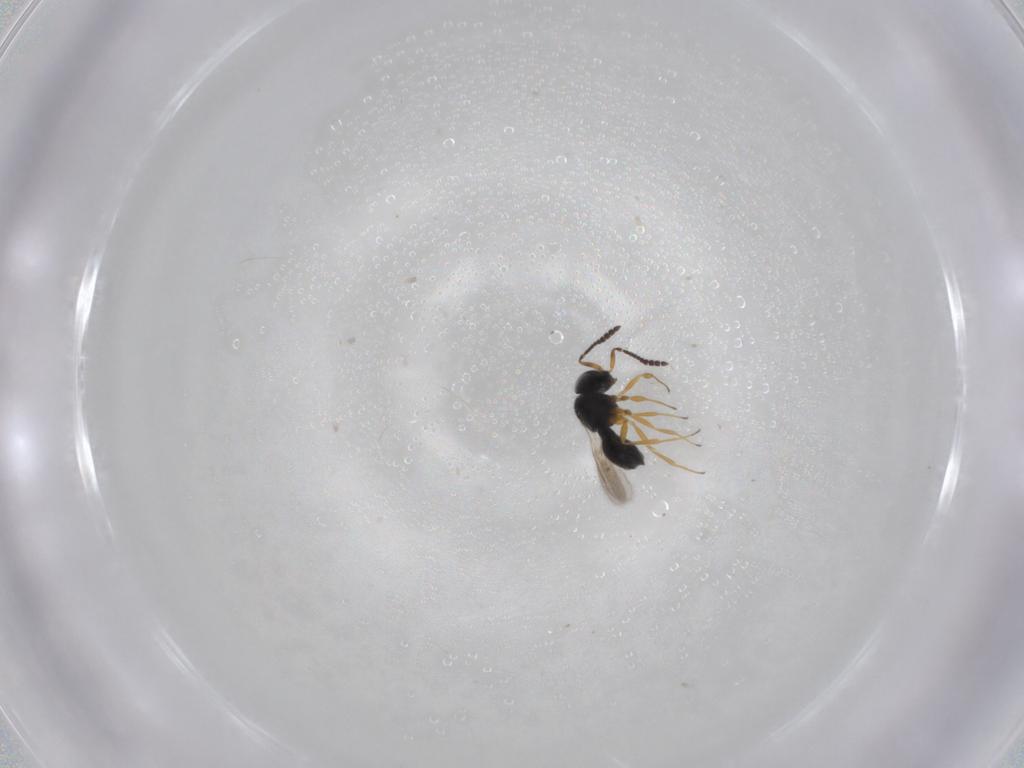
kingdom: Animalia
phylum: Arthropoda
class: Insecta
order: Hymenoptera
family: Scelionidae
